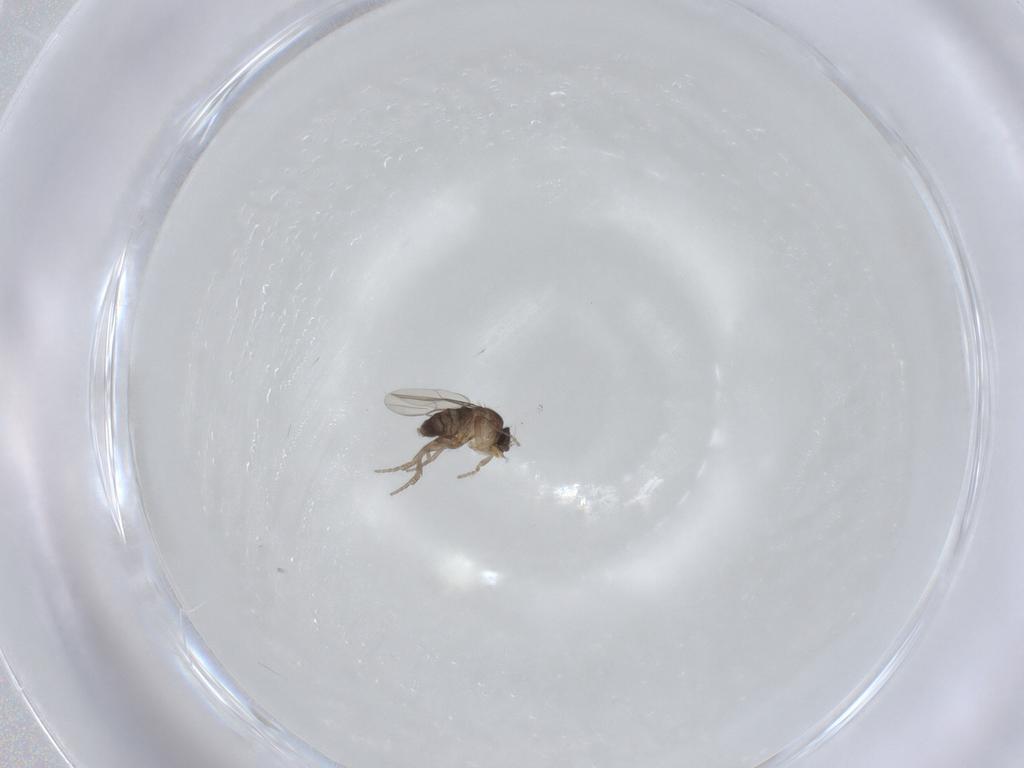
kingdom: Animalia
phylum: Arthropoda
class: Insecta
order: Diptera
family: Phoridae
